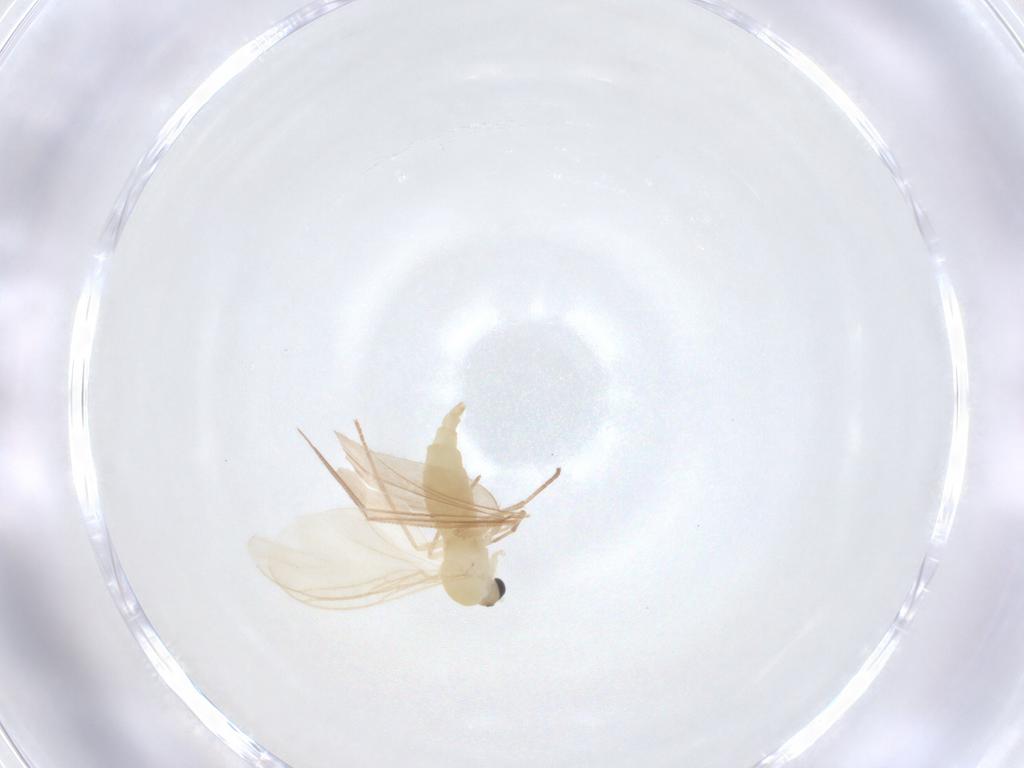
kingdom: Animalia
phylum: Arthropoda
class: Insecta
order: Diptera
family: Sciaridae
